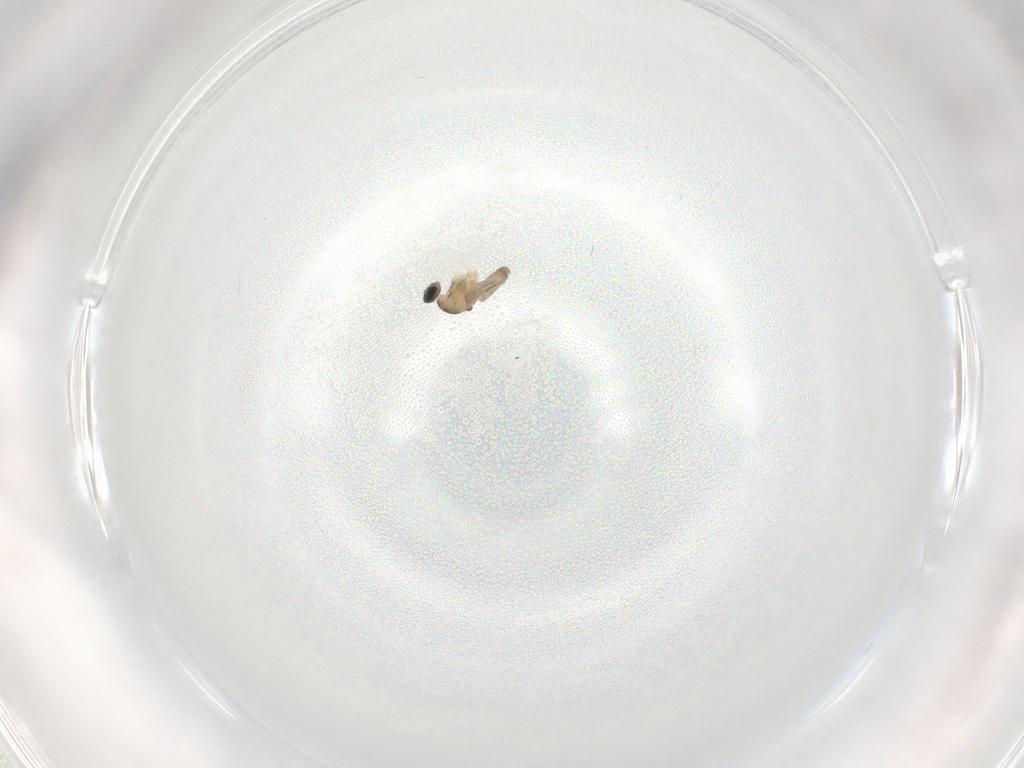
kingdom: Animalia
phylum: Arthropoda
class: Insecta
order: Diptera
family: Cecidomyiidae
